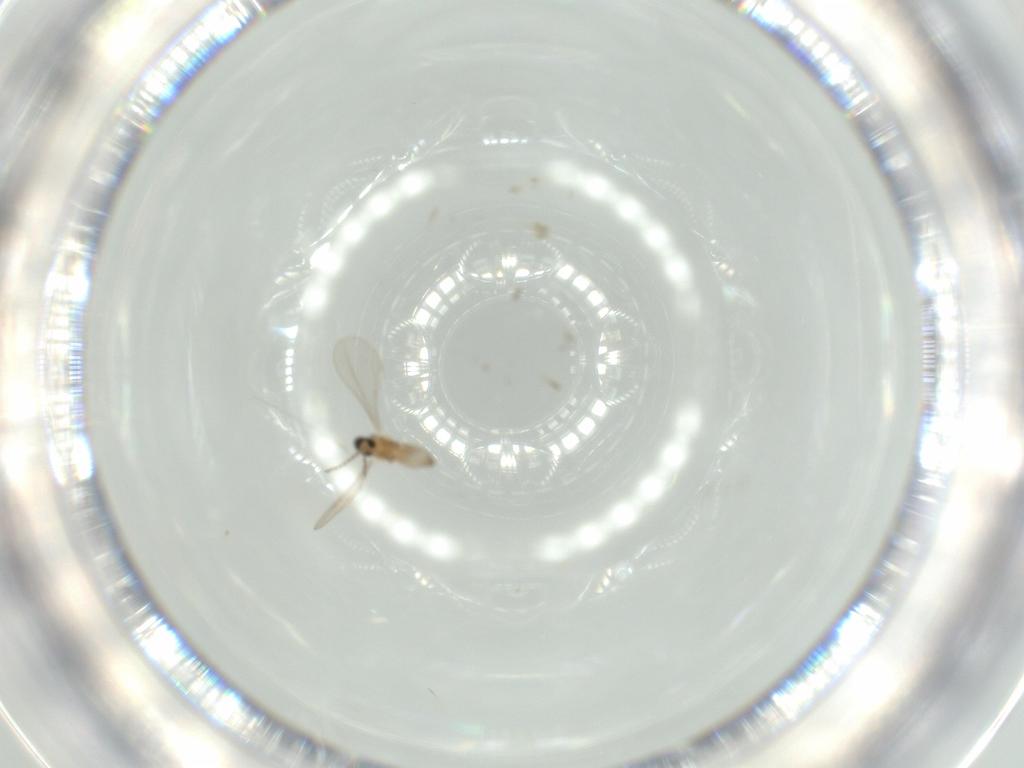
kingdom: Animalia
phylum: Arthropoda
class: Insecta
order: Diptera
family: Cecidomyiidae
